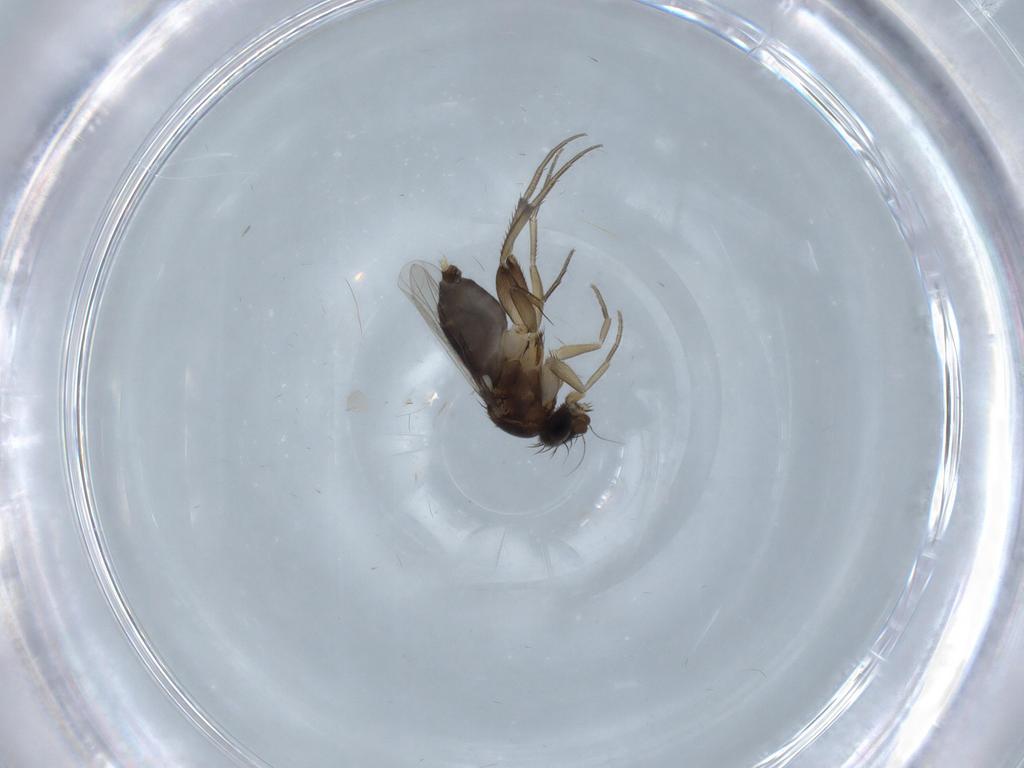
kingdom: Animalia
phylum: Arthropoda
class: Insecta
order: Diptera
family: Phoridae
